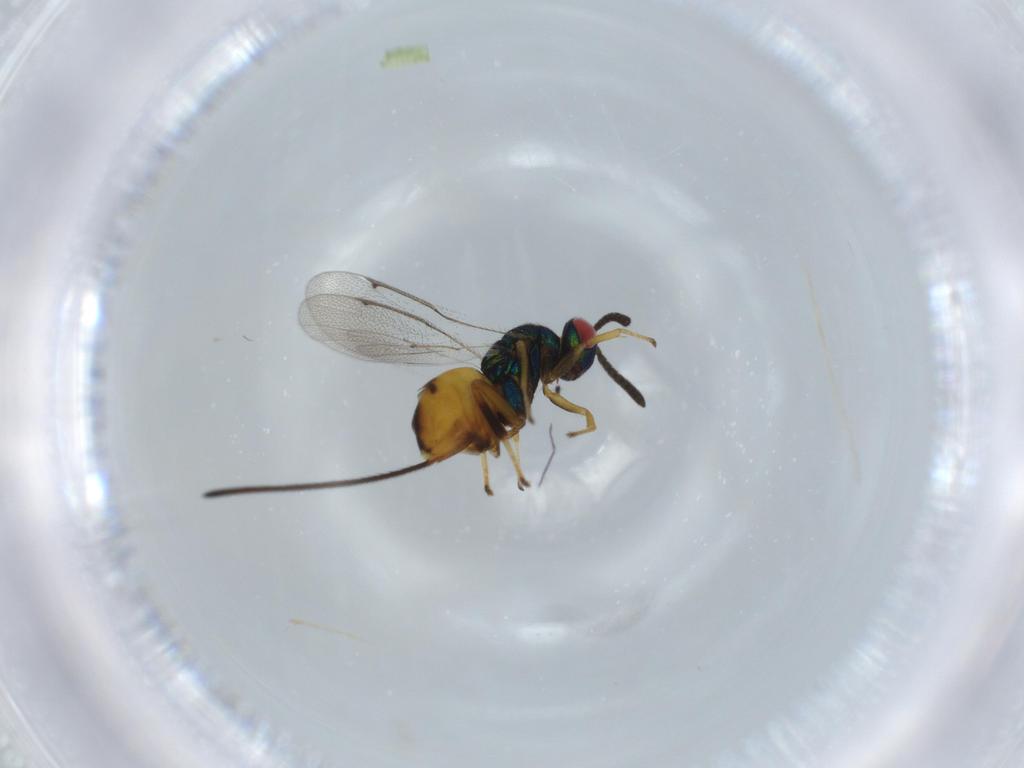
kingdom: Animalia
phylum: Arthropoda
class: Insecta
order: Hymenoptera
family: Torymidae
